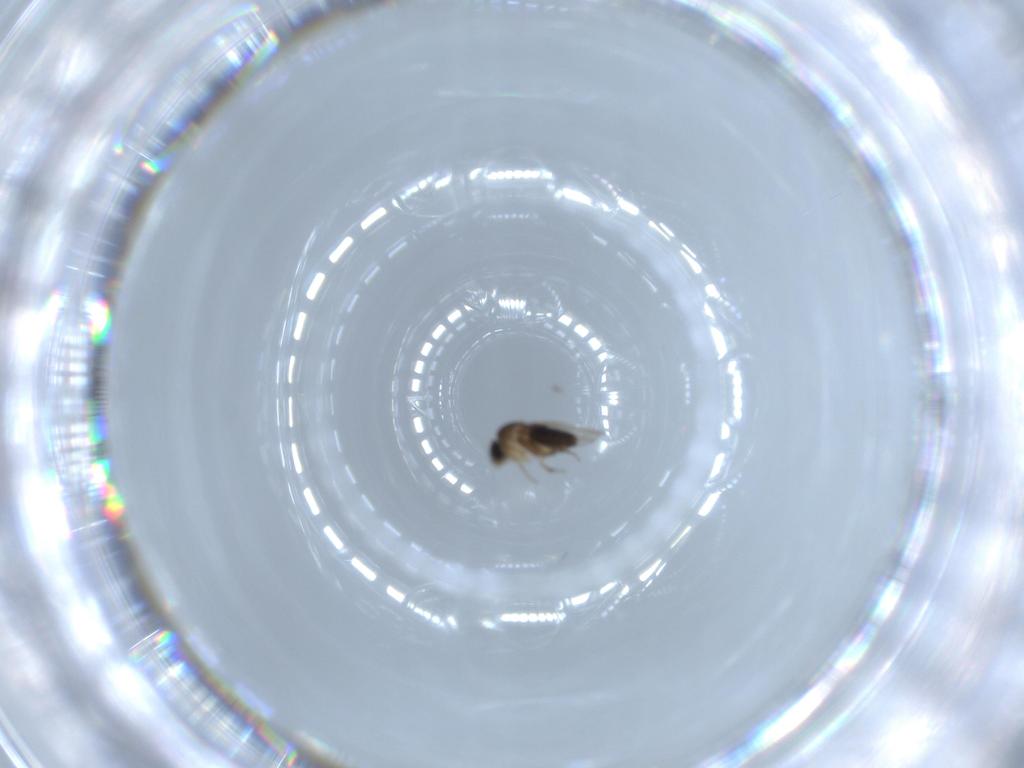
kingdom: Animalia
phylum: Arthropoda
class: Insecta
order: Diptera
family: Phoridae
